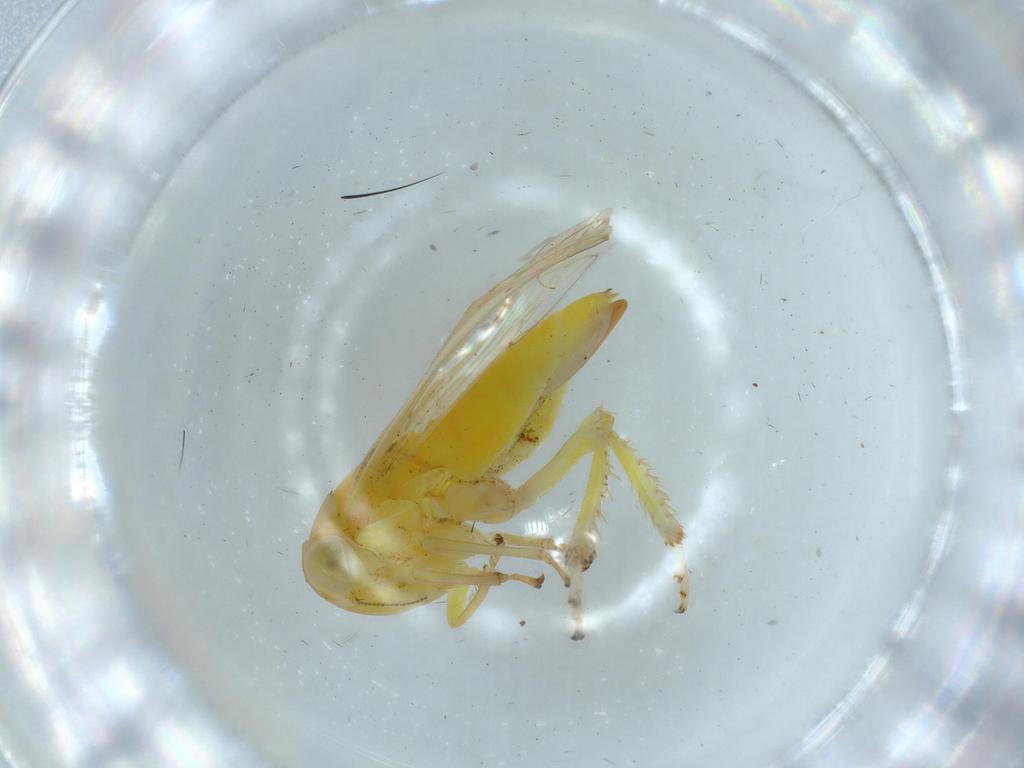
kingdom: Animalia
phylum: Arthropoda
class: Insecta
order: Hemiptera
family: Cicadellidae
